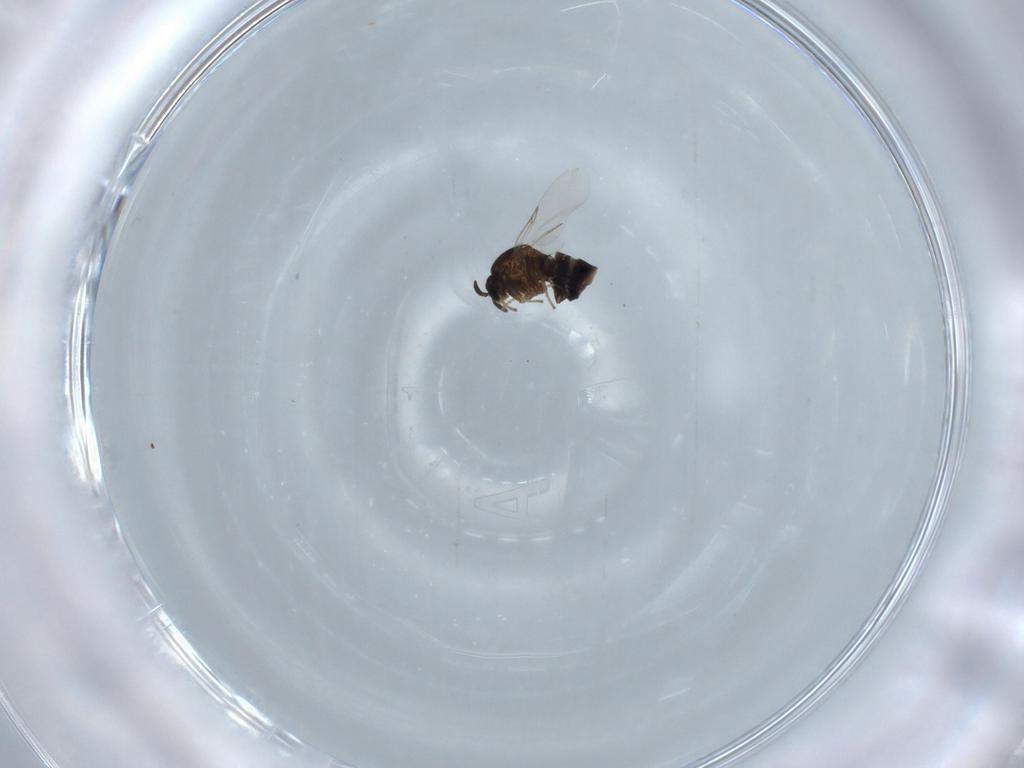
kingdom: Animalia
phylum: Arthropoda
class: Insecta
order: Diptera
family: Scatopsidae
